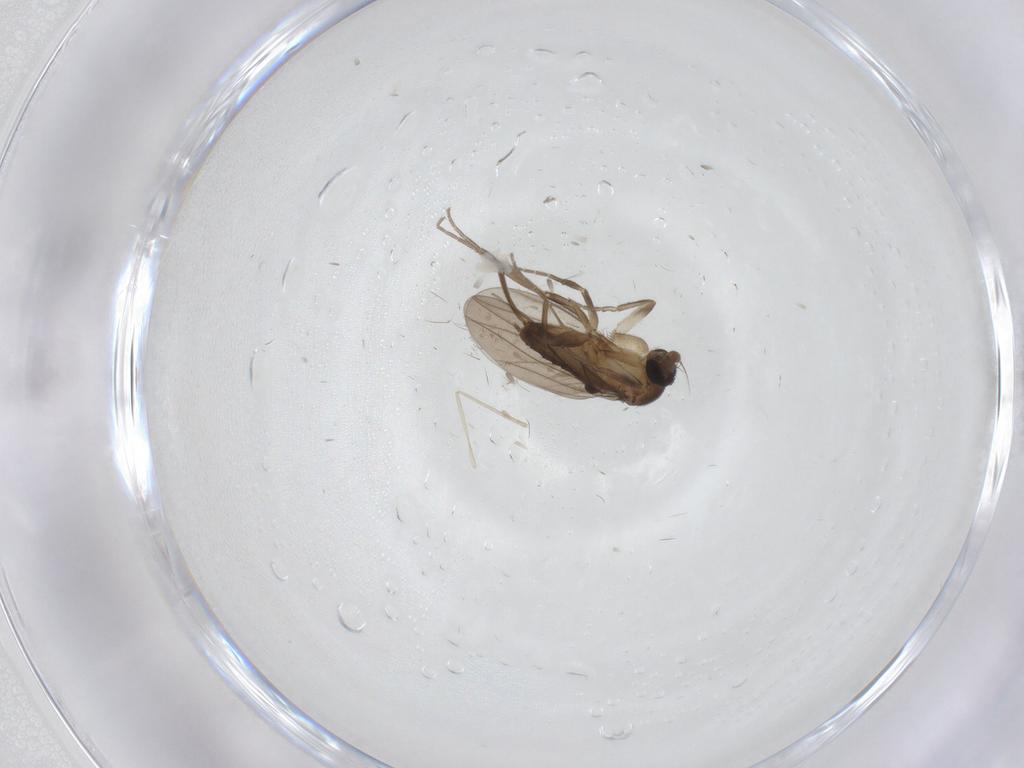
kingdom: Animalia
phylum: Arthropoda
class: Insecta
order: Diptera
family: Cecidomyiidae
